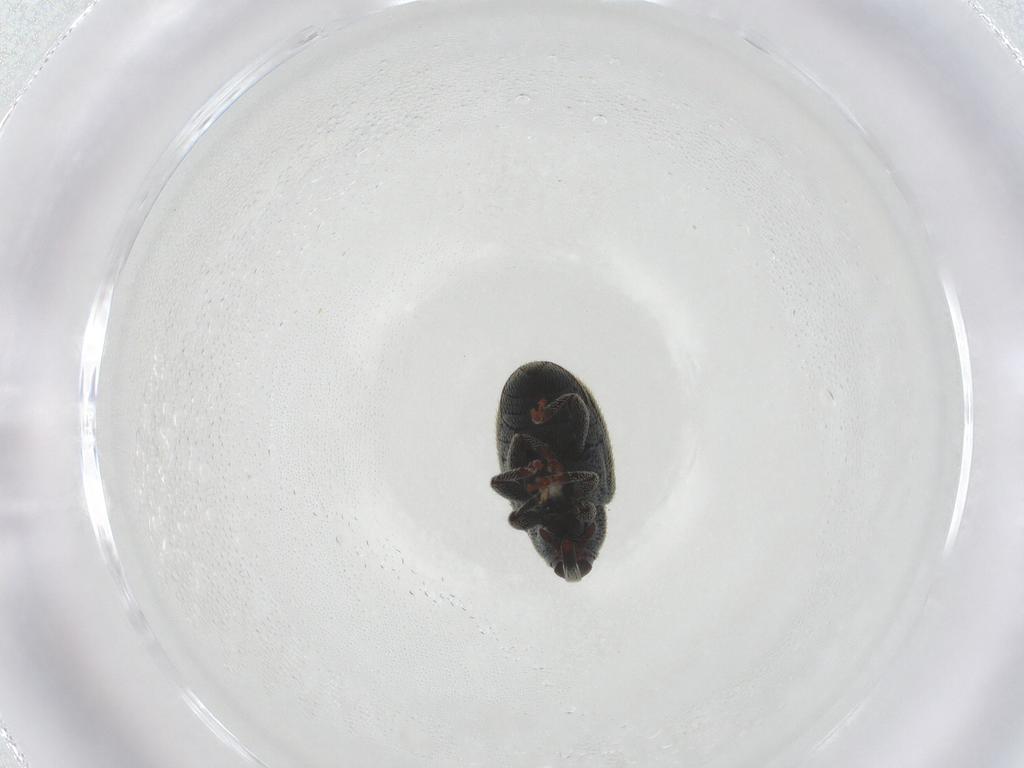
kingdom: Animalia
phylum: Arthropoda
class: Insecta
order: Coleoptera
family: Curculionidae
